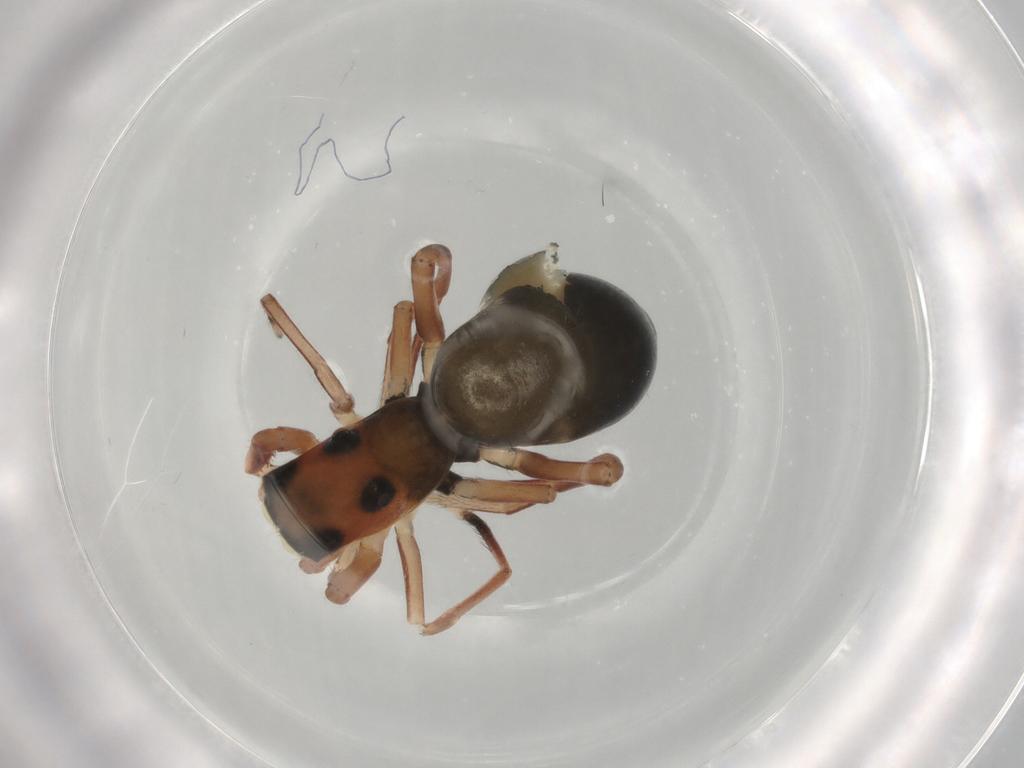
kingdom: Animalia
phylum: Arthropoda
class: Arachnida
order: Araneae
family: Salticidae
